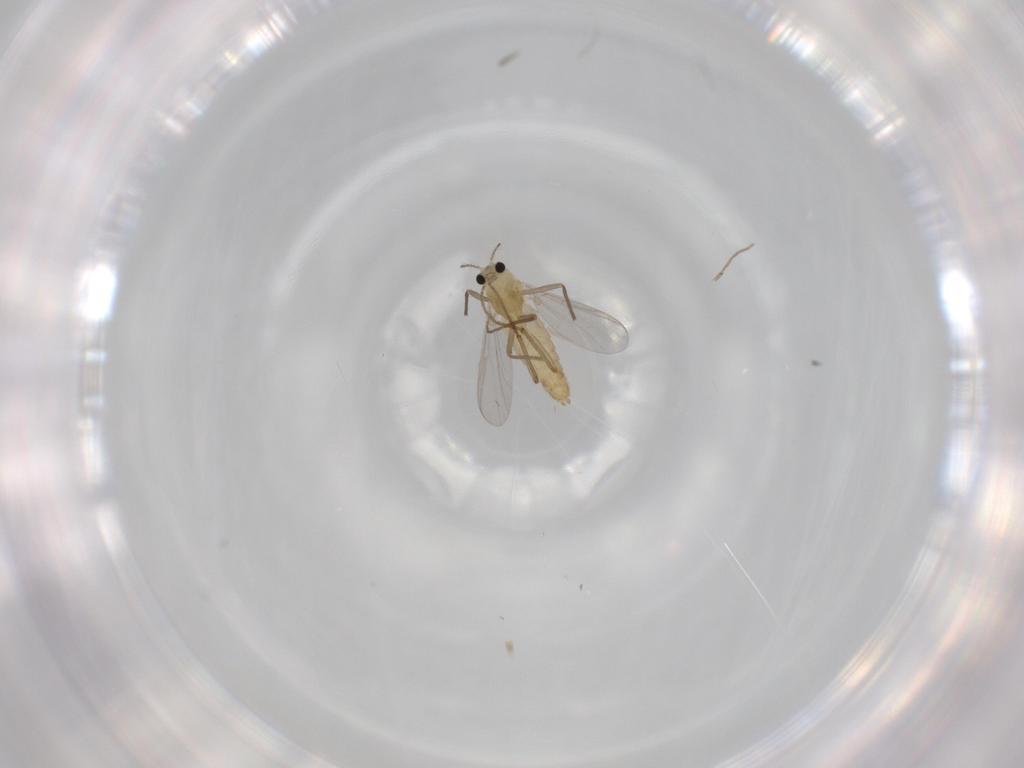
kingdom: Animalia
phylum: Arthropoda
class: Insecta
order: Diptera
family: Chironomidae
